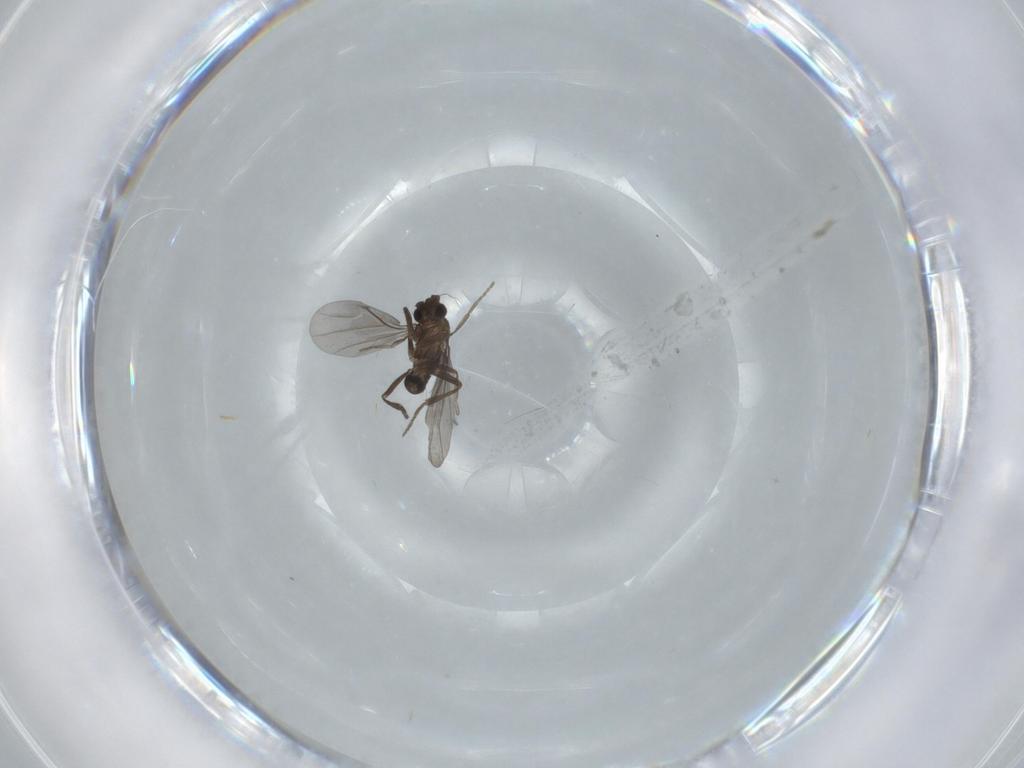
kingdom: Animalia
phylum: Arthropoda
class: Insecta
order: Diptera
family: Phoridae
